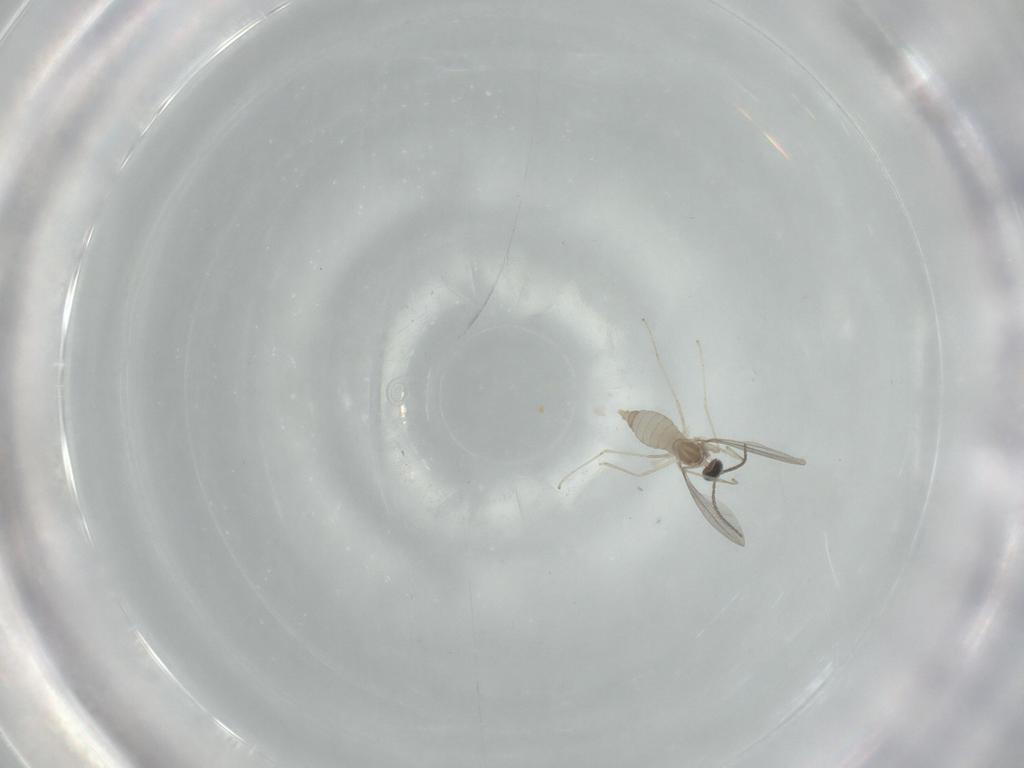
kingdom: Animalia
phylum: Arthropoda
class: Insecta
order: Diptera
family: Cecidomyiidae
